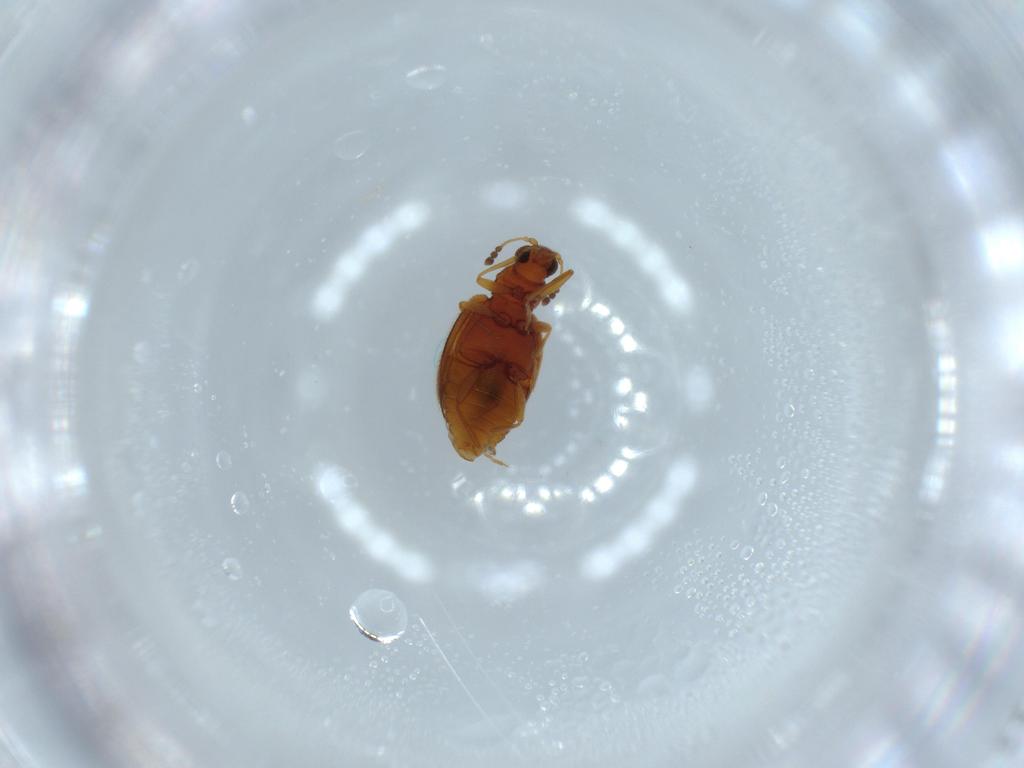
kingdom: Animalia
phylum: Arthropoda
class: Insecta
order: Coleoptera
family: Latridiidae
